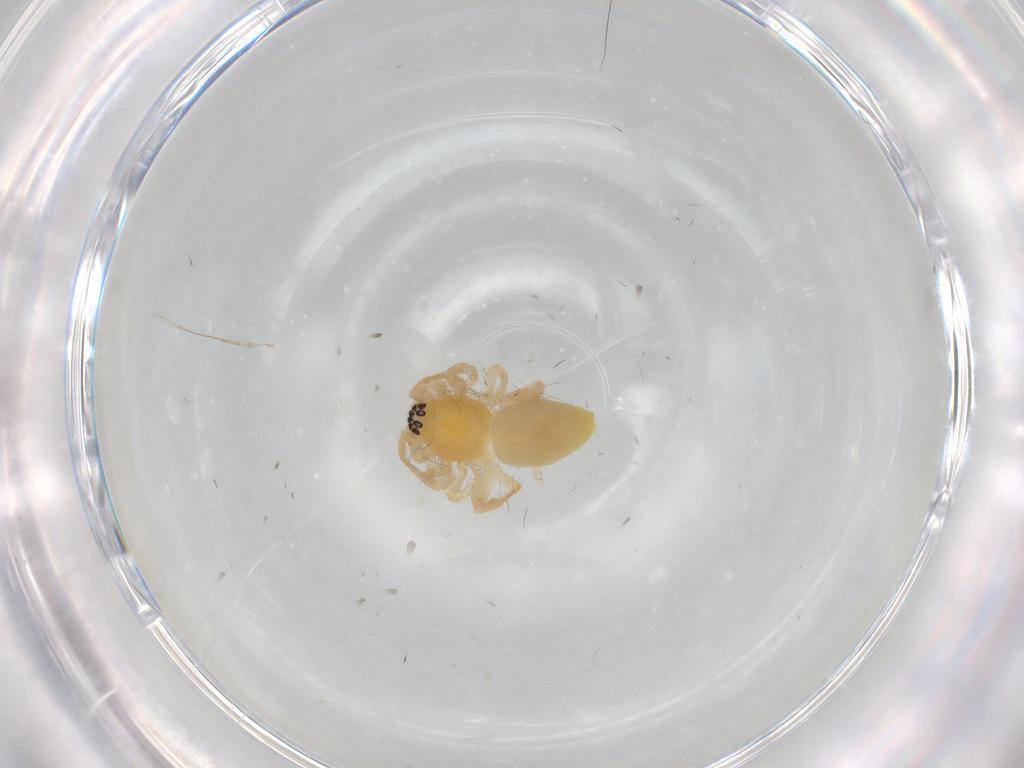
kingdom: Animalia
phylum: Arthropoda
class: Arachnida
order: Araneae
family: Anyphaenidae
